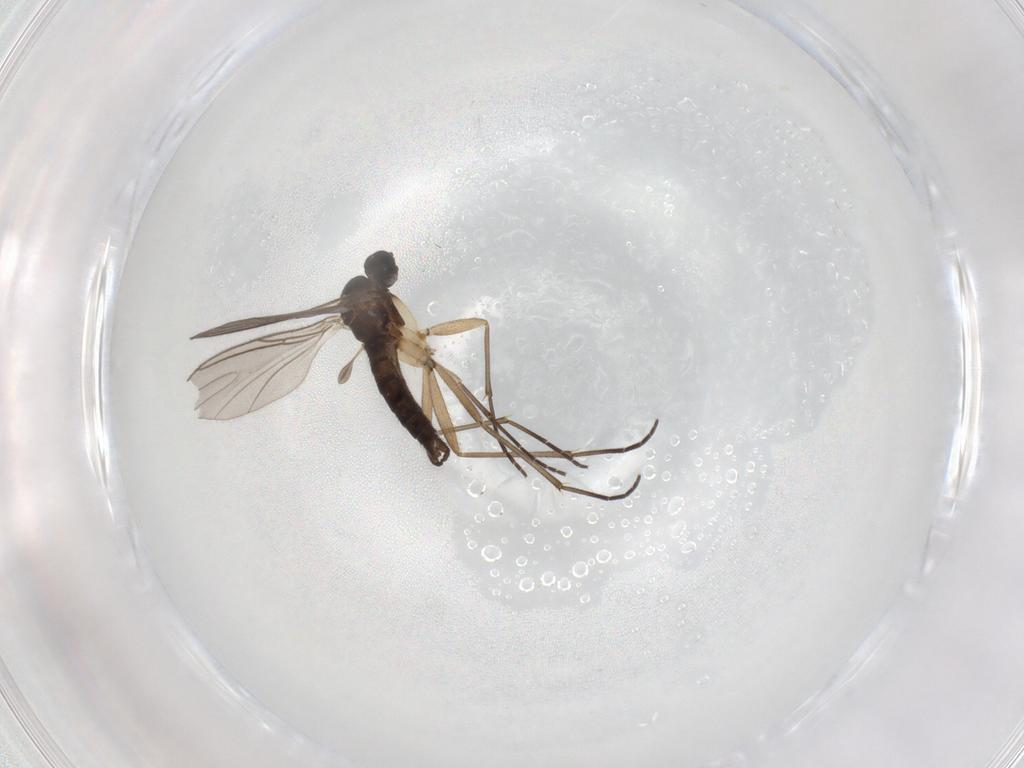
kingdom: Animalia
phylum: Arthropoda
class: Insecta
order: Diptera
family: Sciaridae
